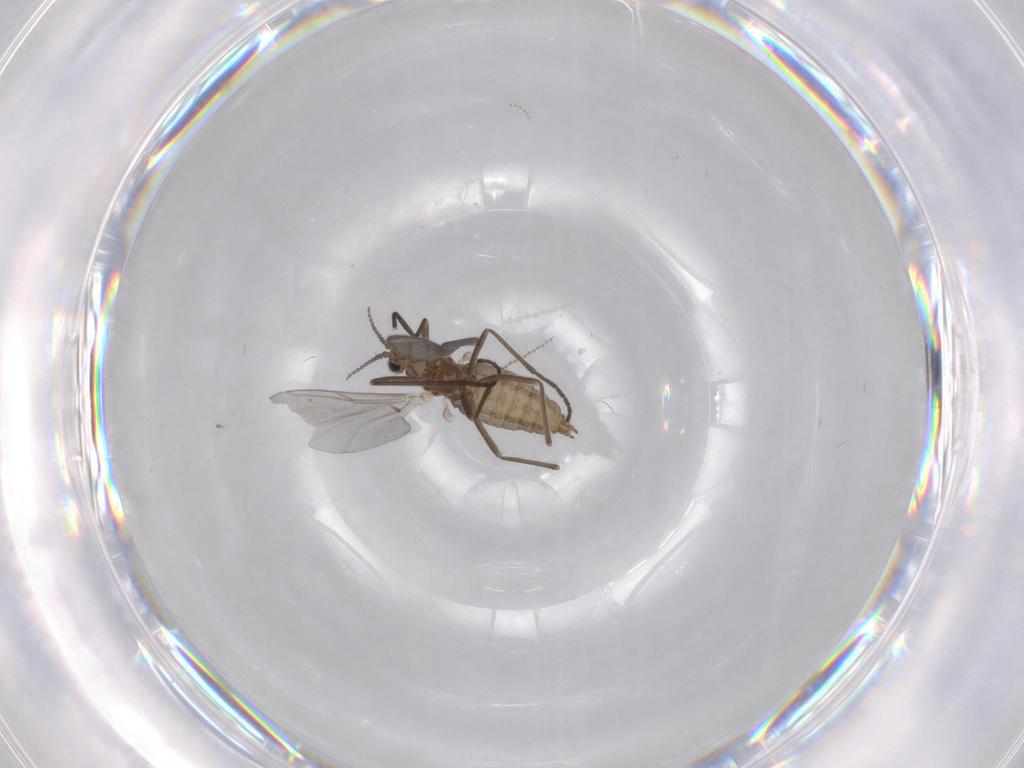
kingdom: Animalia
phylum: Arthropoda
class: Insecta
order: Diptera
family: Cecidomyiidae
